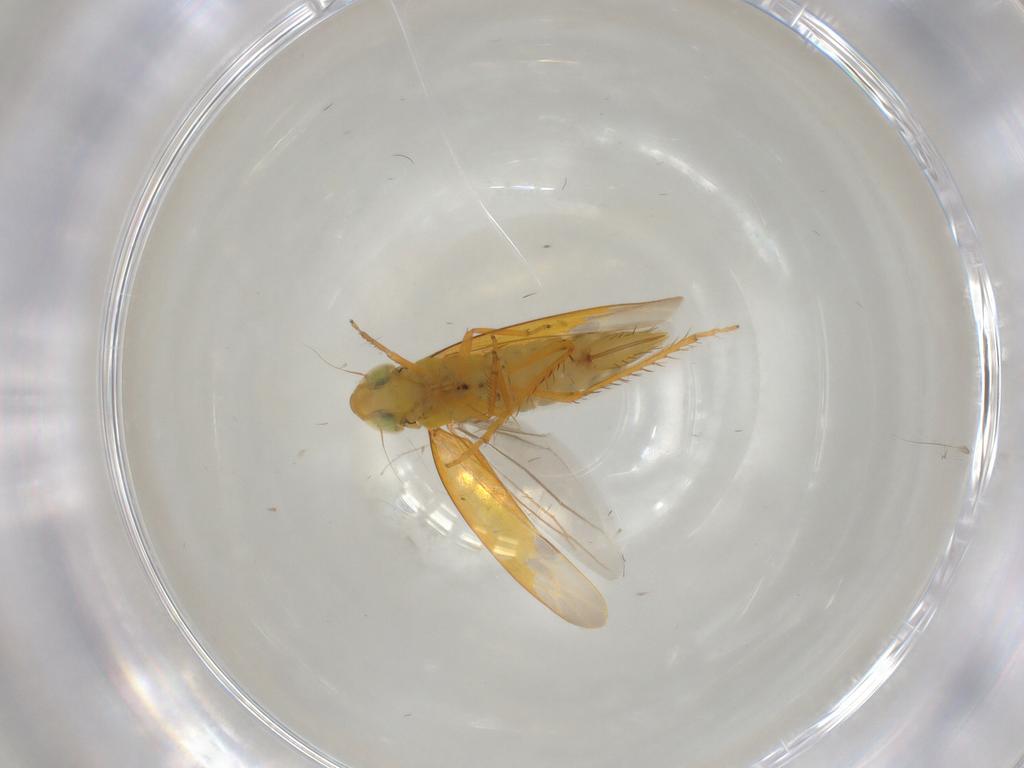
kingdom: Animalia
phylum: Arthropoda
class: Insecta
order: Hemiptera
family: Cicadellidae
